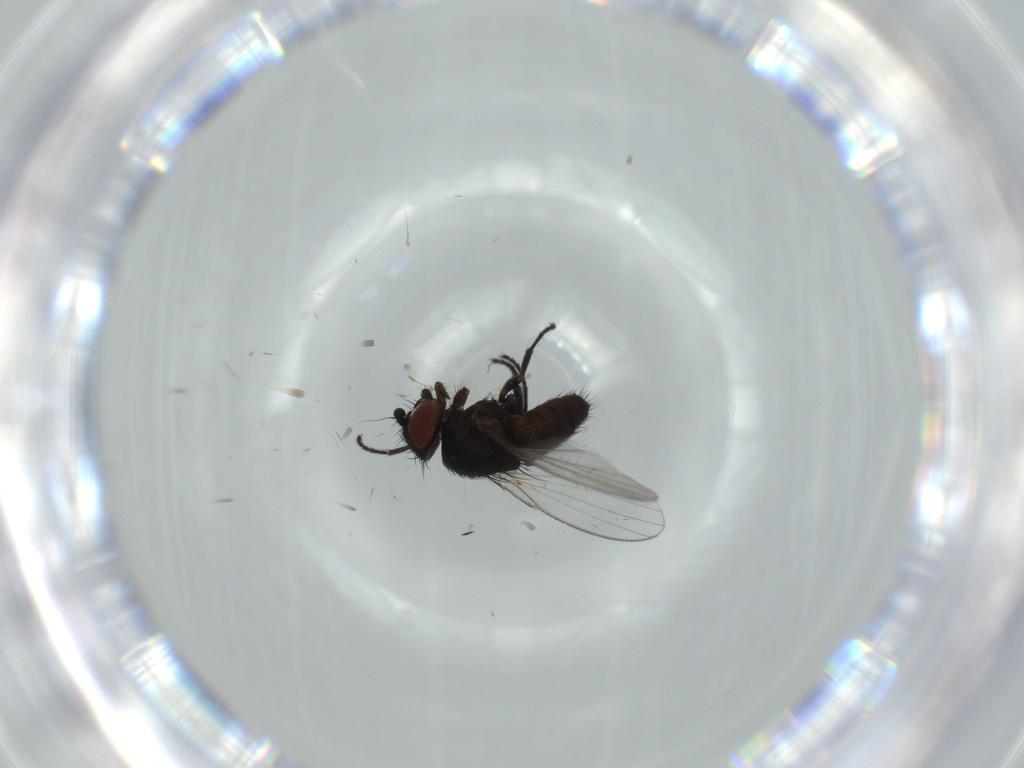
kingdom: Animalia
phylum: Arthropoda
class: Insecta
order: Diptera
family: Milichiidae
